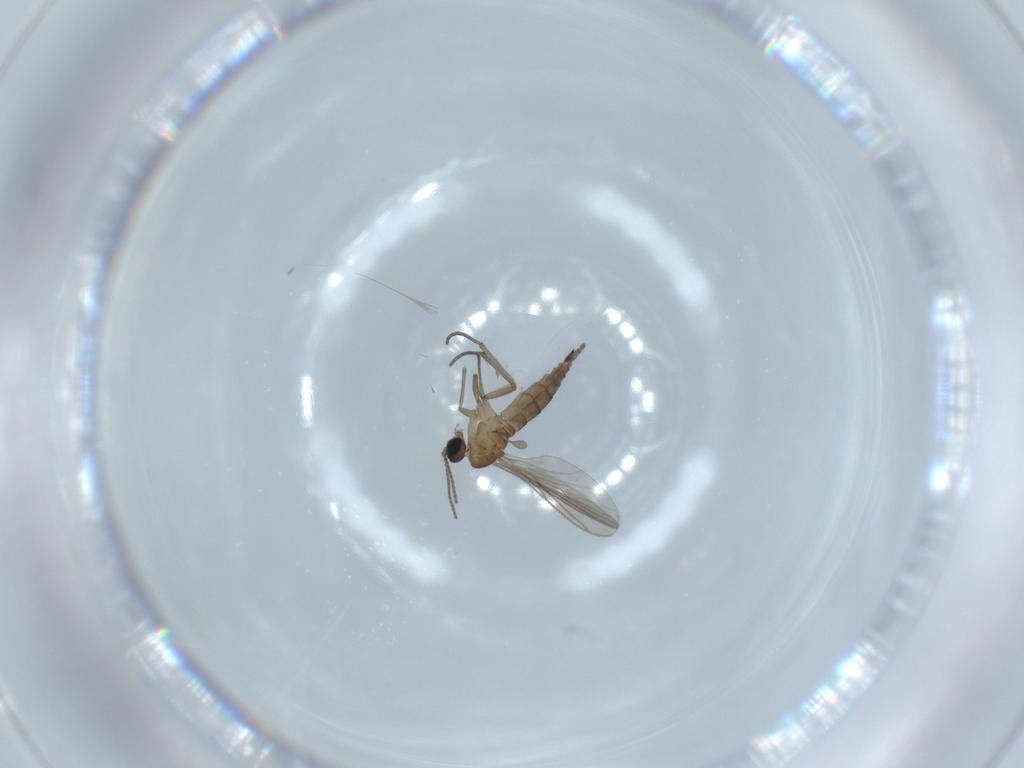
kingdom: Animalia
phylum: Arthropoda
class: Insecta
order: Diptera
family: Sciaridae
